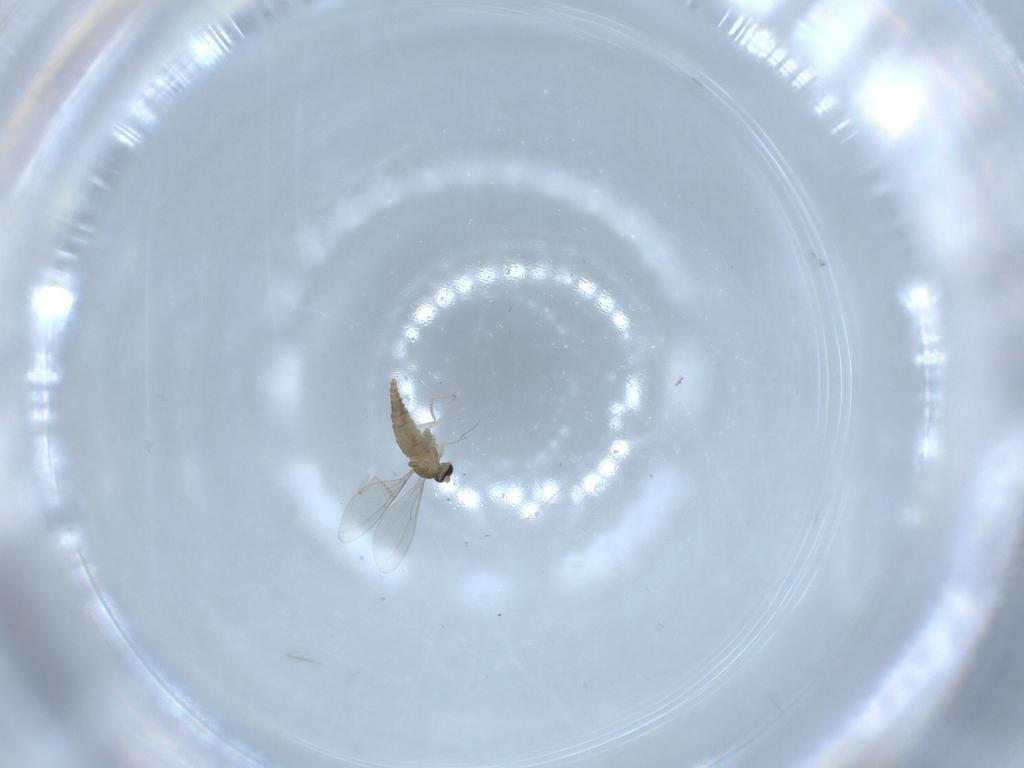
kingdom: Animalia
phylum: Arthropoda
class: Insecta
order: Diptera
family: Cecidomyiidae
